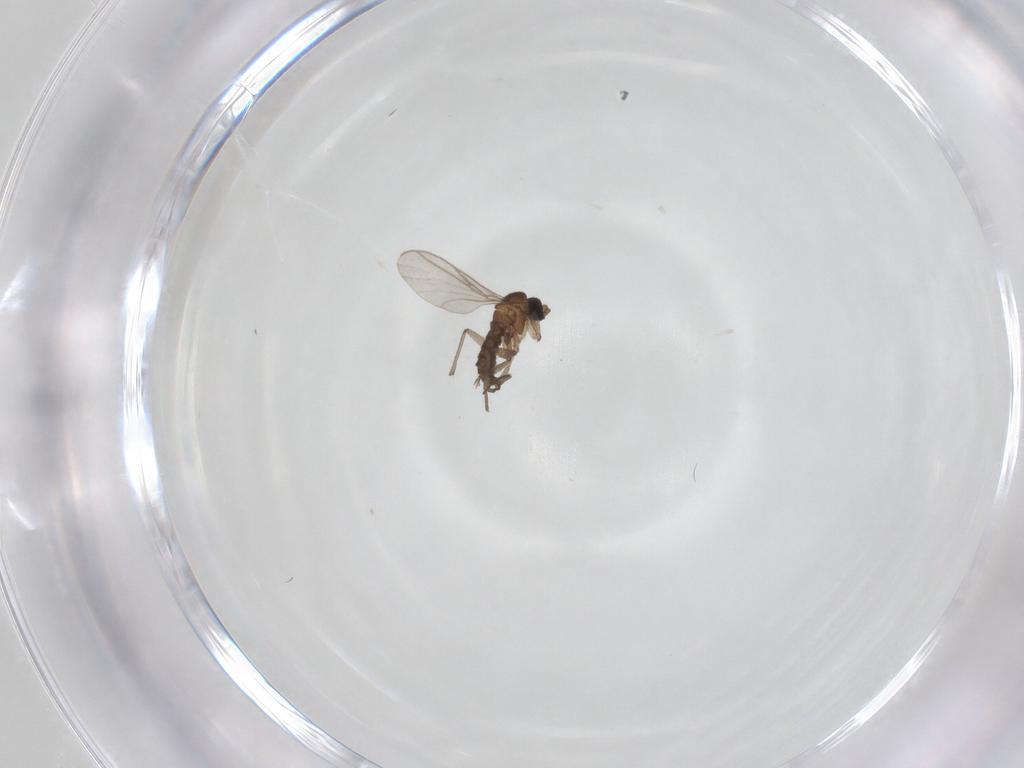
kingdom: Animalia
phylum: Arthropoda
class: Insecta
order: Diptera
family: Sciaridae
